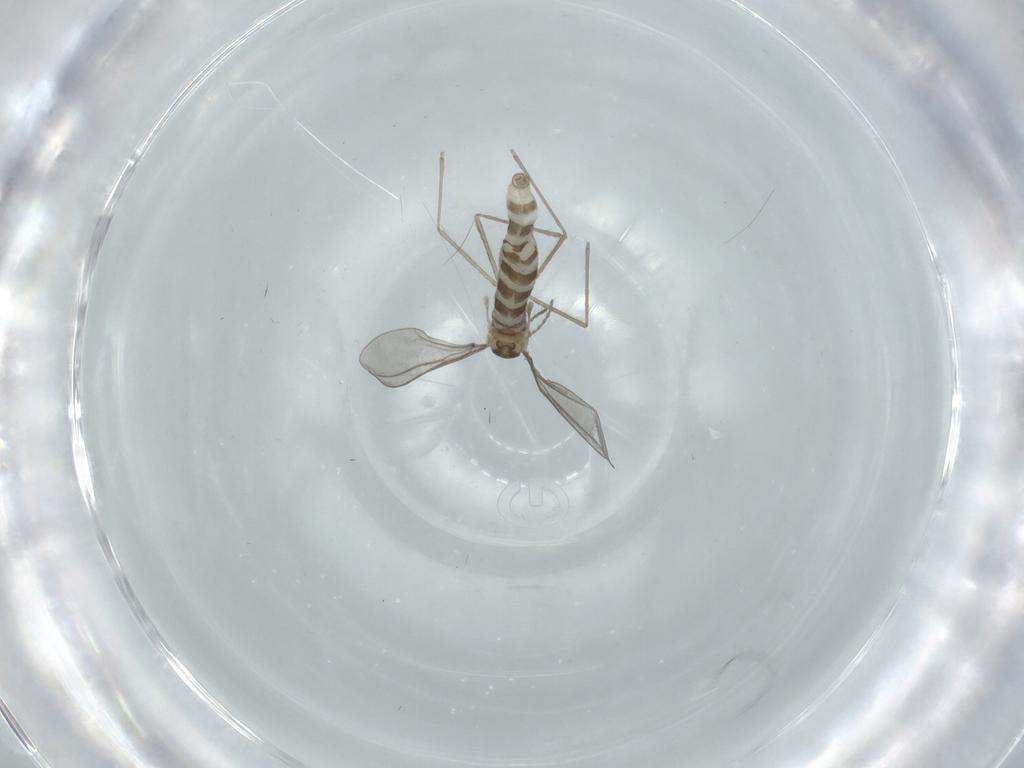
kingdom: Animalia
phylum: Arthropoda
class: Insecta
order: Diptera
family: Cecidomyiidae
